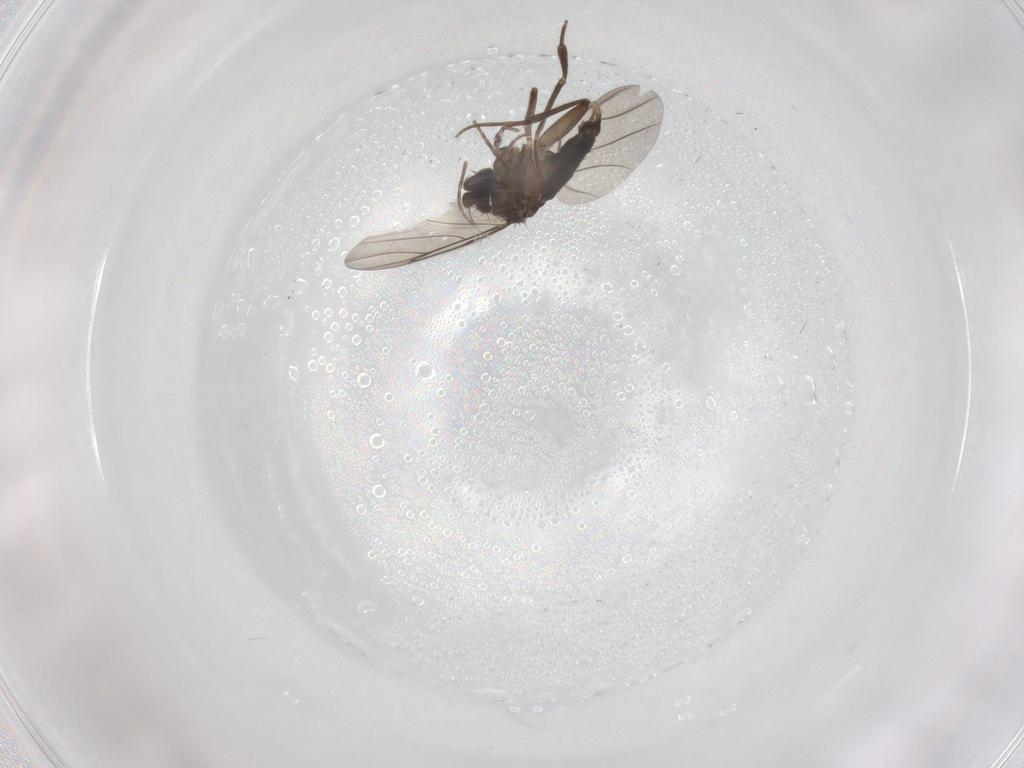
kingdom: Animalia
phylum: Arthropoda
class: Insecta
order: Diptera
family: Phoridae
